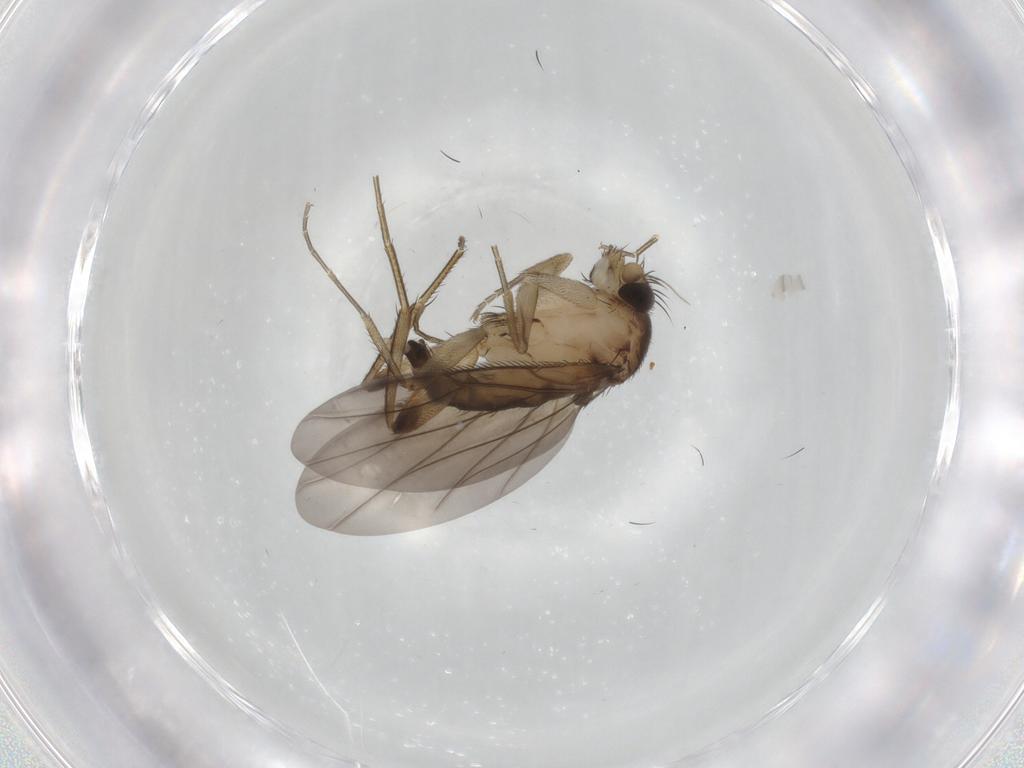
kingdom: Animalia
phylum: Arthropoda
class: Insecta
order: Diptera
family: Phoridae
